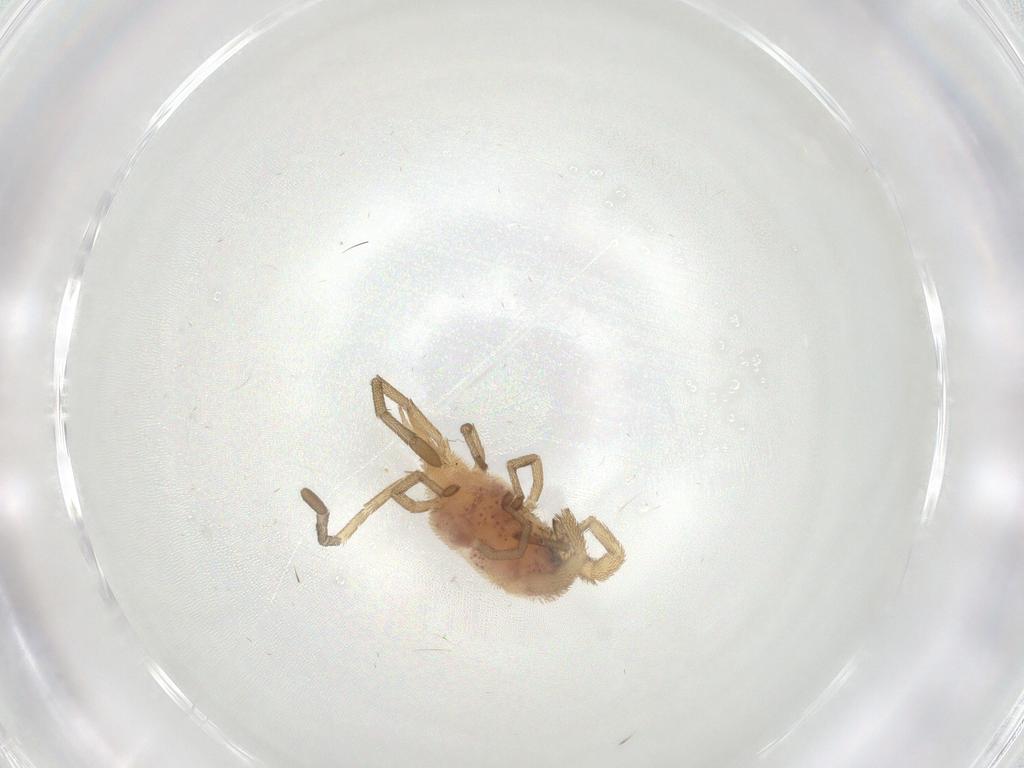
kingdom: Animalia
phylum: Arthropoda
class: Arachnida
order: Trombidiformes
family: Smarididae
